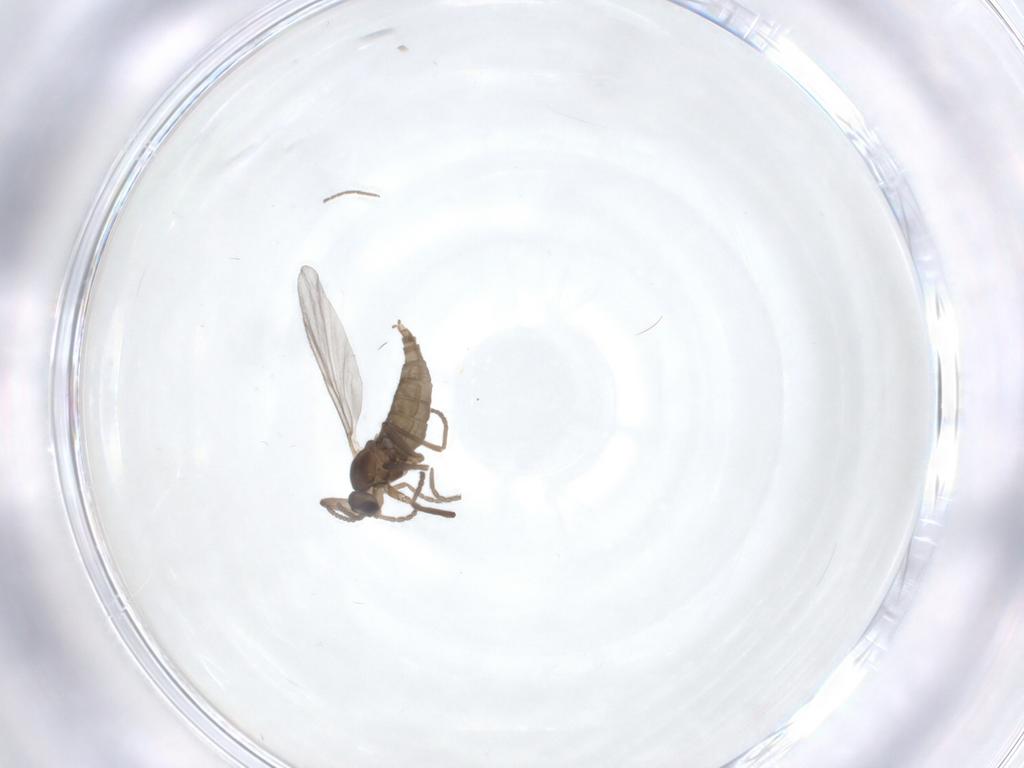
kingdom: Animalia
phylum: Arthropoda
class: Insecta
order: Diptera
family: Cecidomyiidae
